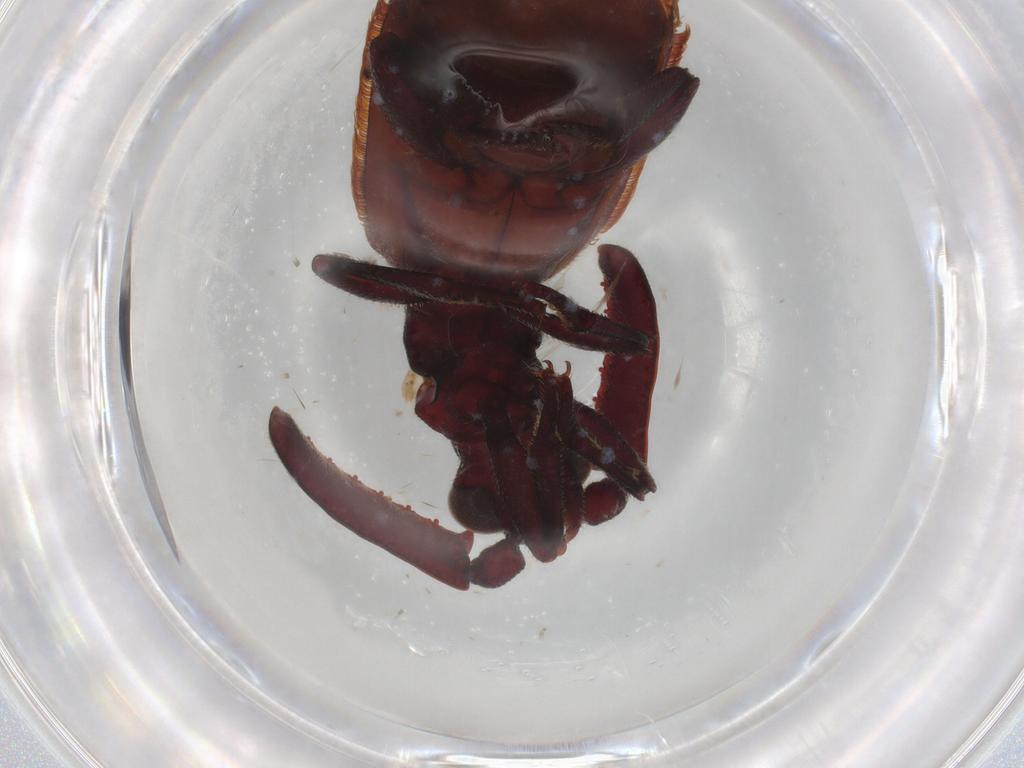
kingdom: Animalia
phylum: Arthropoda
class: Insecta
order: Coleoptera
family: Carabidae
